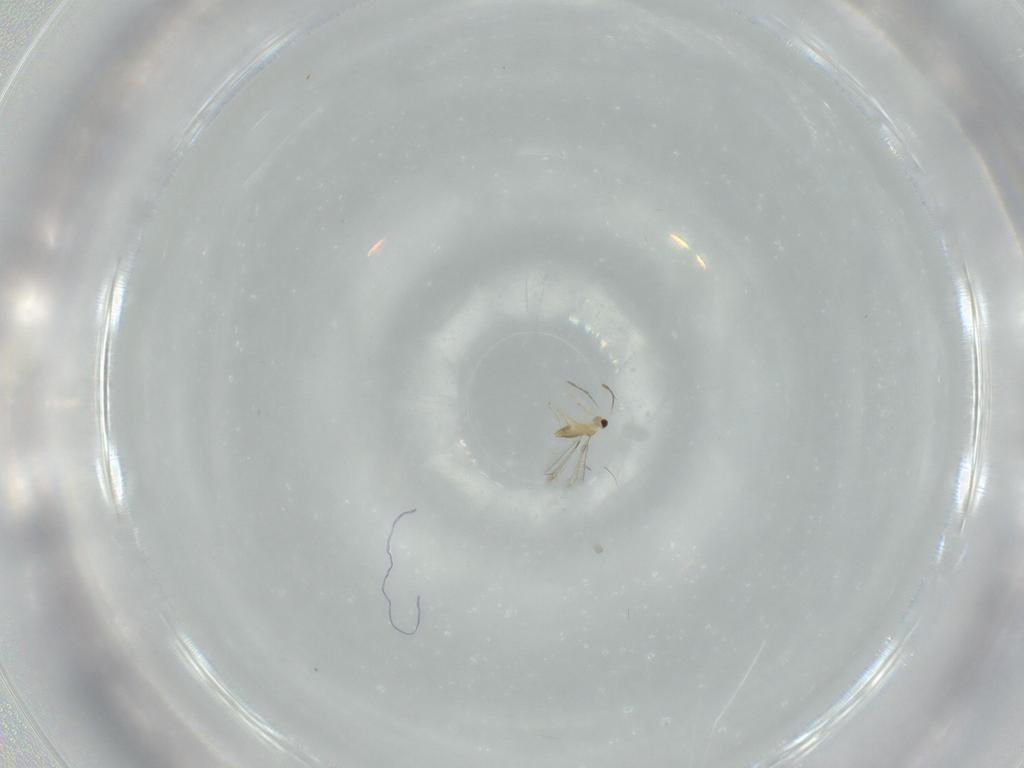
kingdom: Animalia
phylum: Arthropoda
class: Insecta
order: Hymenoptera
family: Mymaridae
